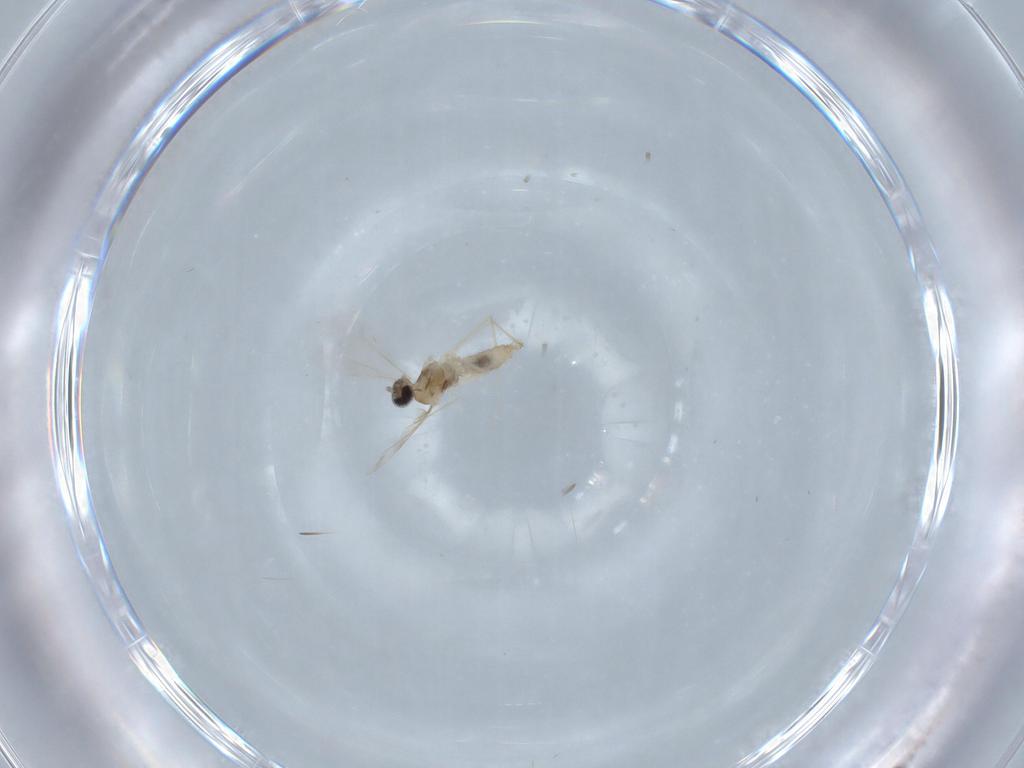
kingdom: Animalia
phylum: Arthropoda
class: Insecta
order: Diptera
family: Cecidomyiidae
